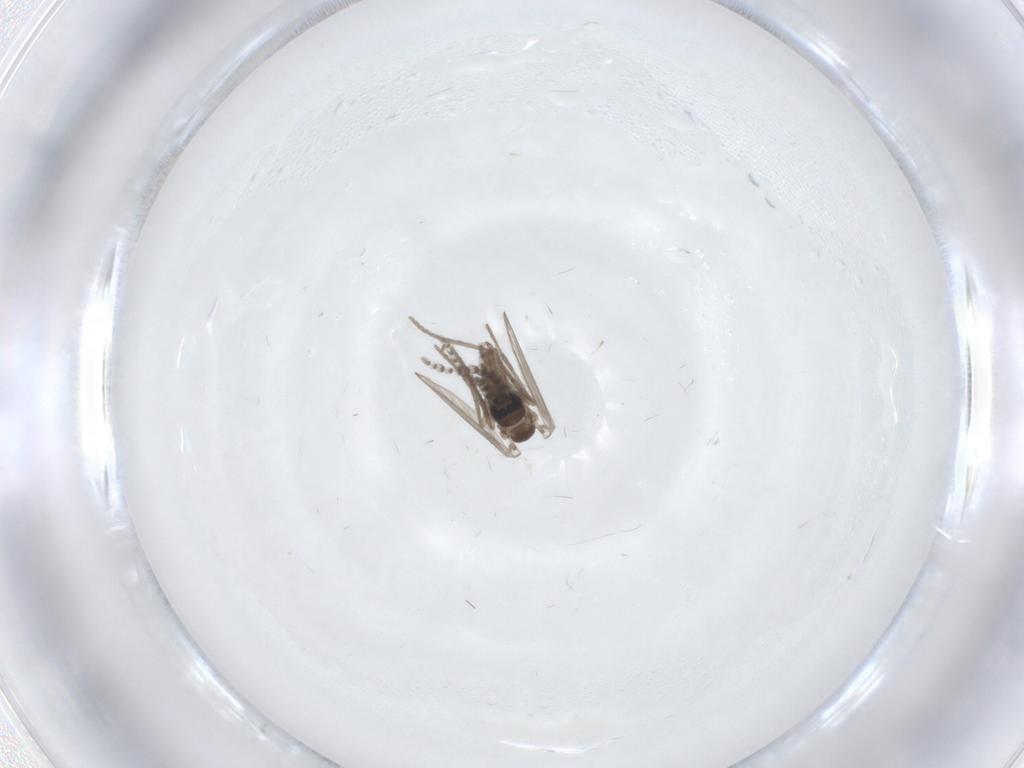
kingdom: Animalia
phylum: Arthropoda
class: Insecta
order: Diptera
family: Psychodidae
